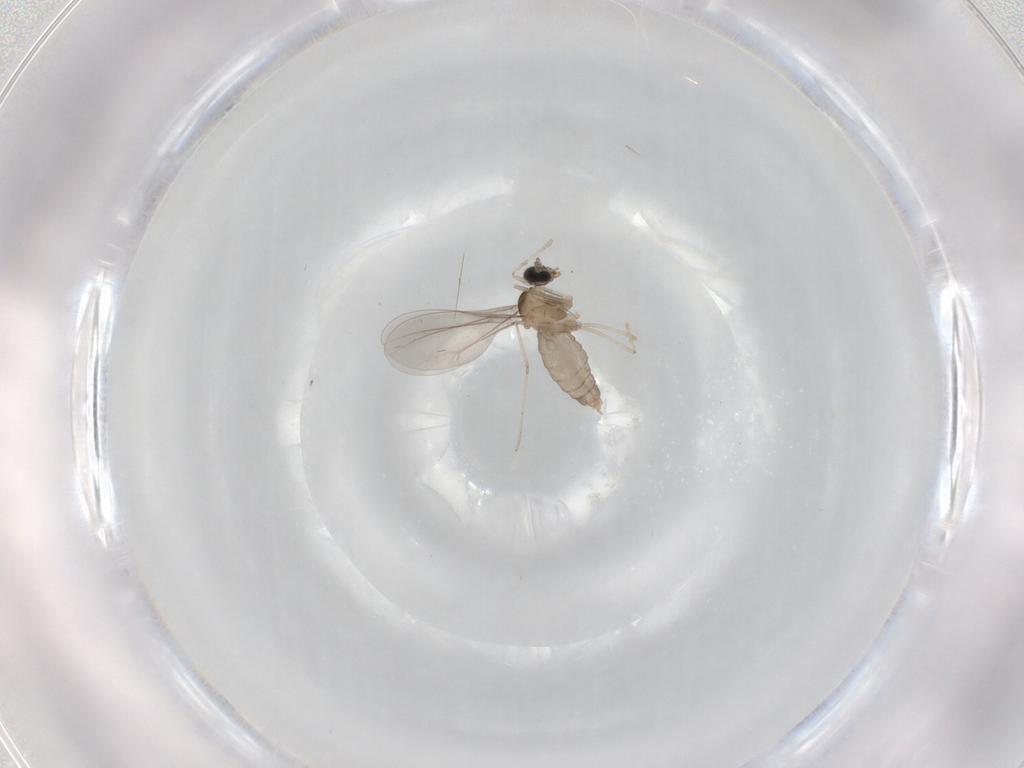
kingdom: Animalia
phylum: Arthropoda
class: Insecta
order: Diptera
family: Cecidomyiidae
